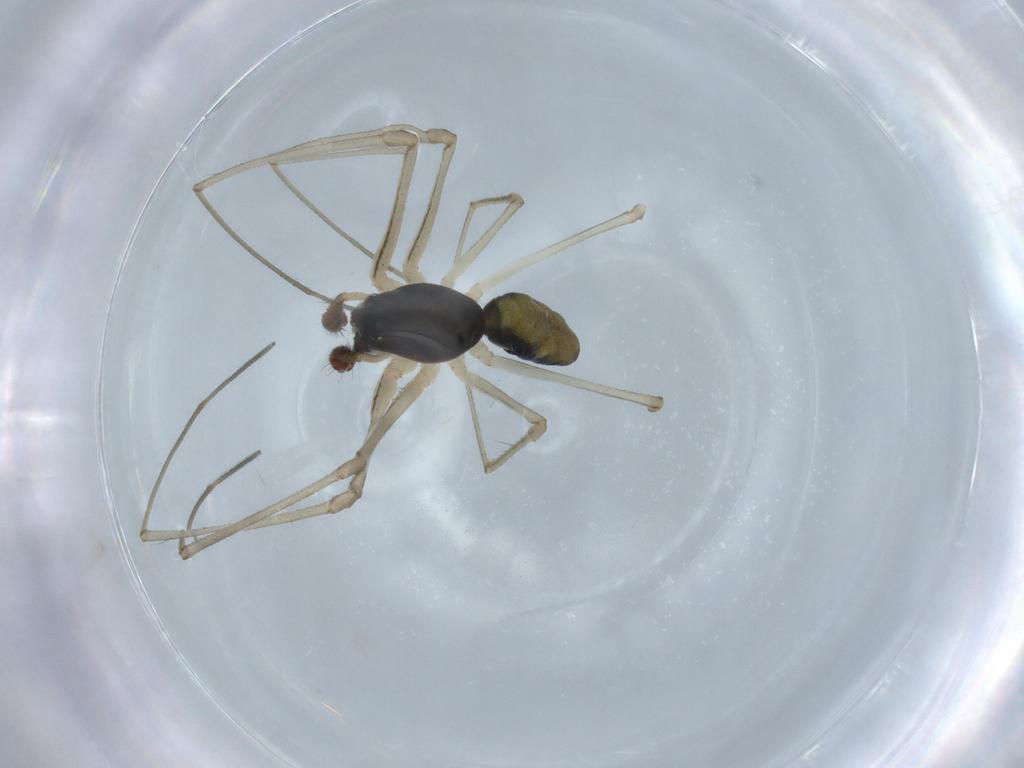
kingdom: Animalia
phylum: Arthropoda
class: Arachnida
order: Araneae
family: Linyphiidae
